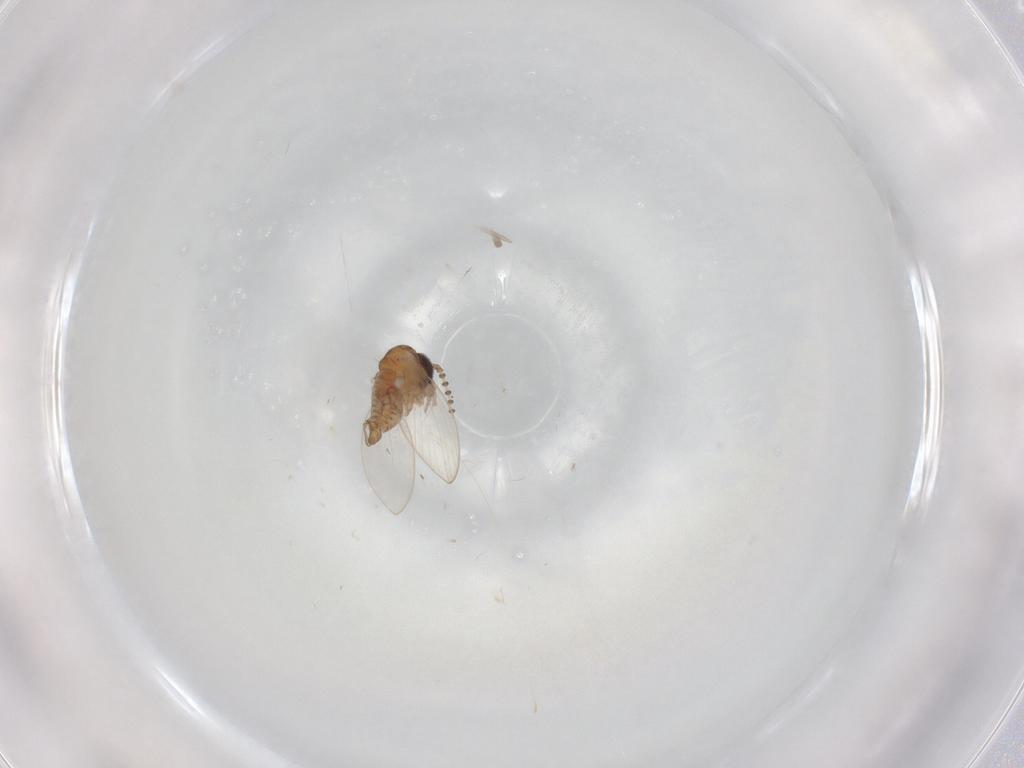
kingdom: Animalia
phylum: Arthropoda
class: Insecta
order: Diptera
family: Psychodidae
